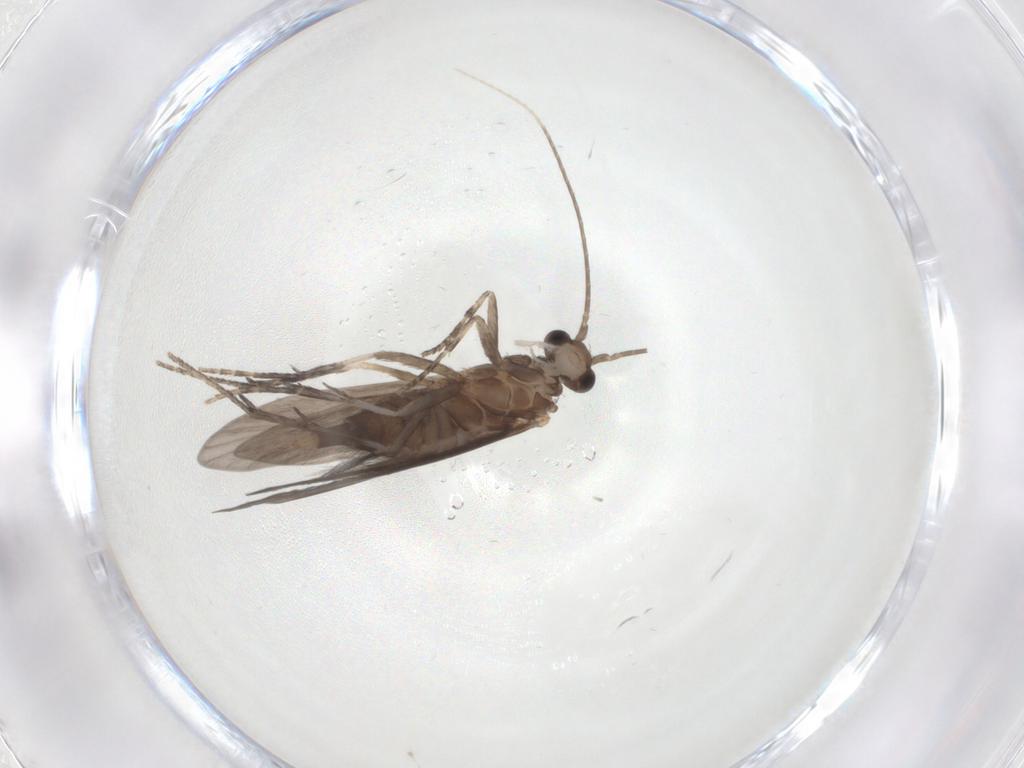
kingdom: Animalia
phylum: Arthropoda
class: Insecta
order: Trichoptera
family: Xiphocentronidae
